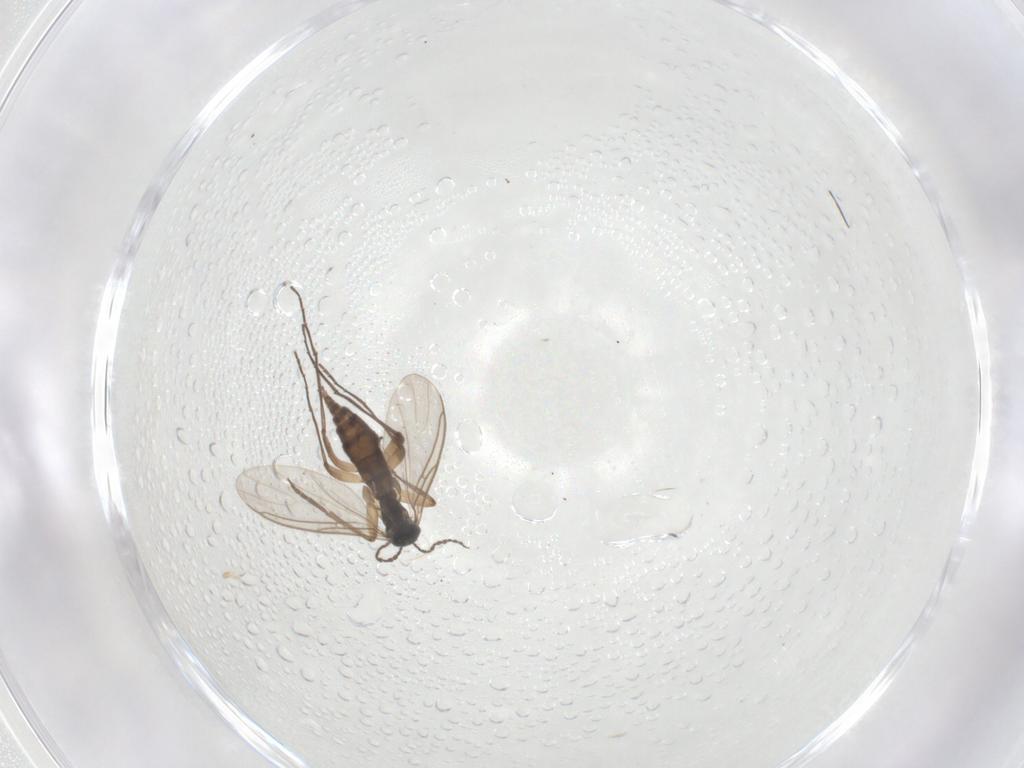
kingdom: Animalia
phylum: Arthropoda
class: Insecta
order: Diptera
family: Sciaridae
